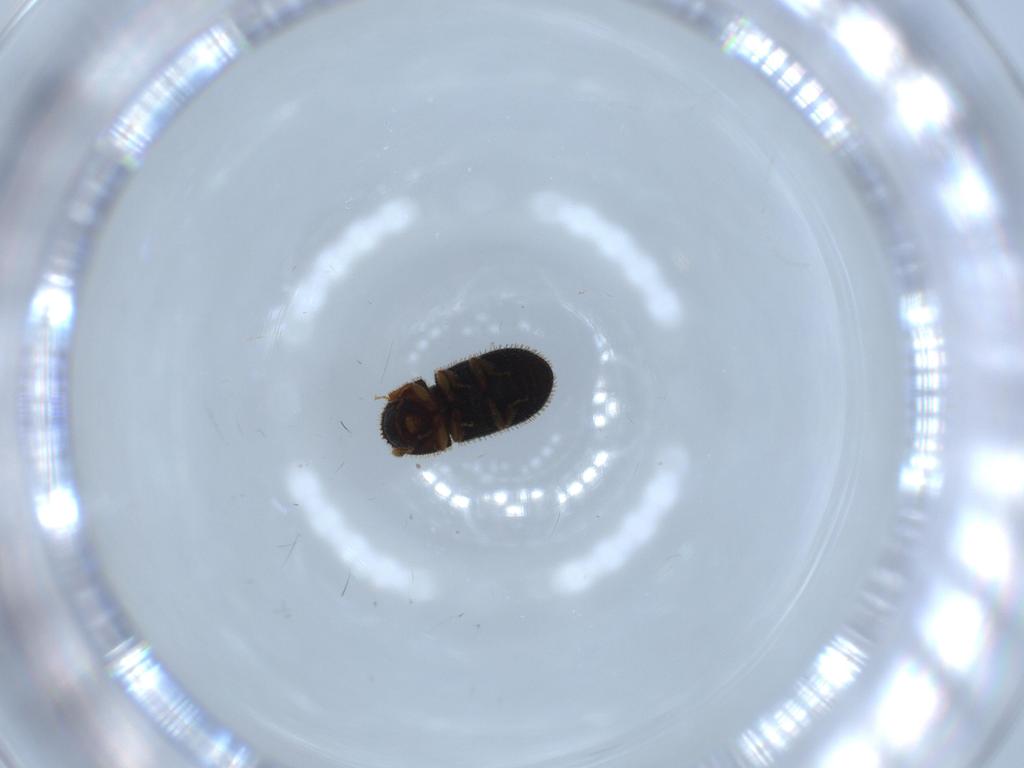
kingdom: Animalia
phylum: Arthropoda
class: Insecta
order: Coleoptera
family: Curculionidae
